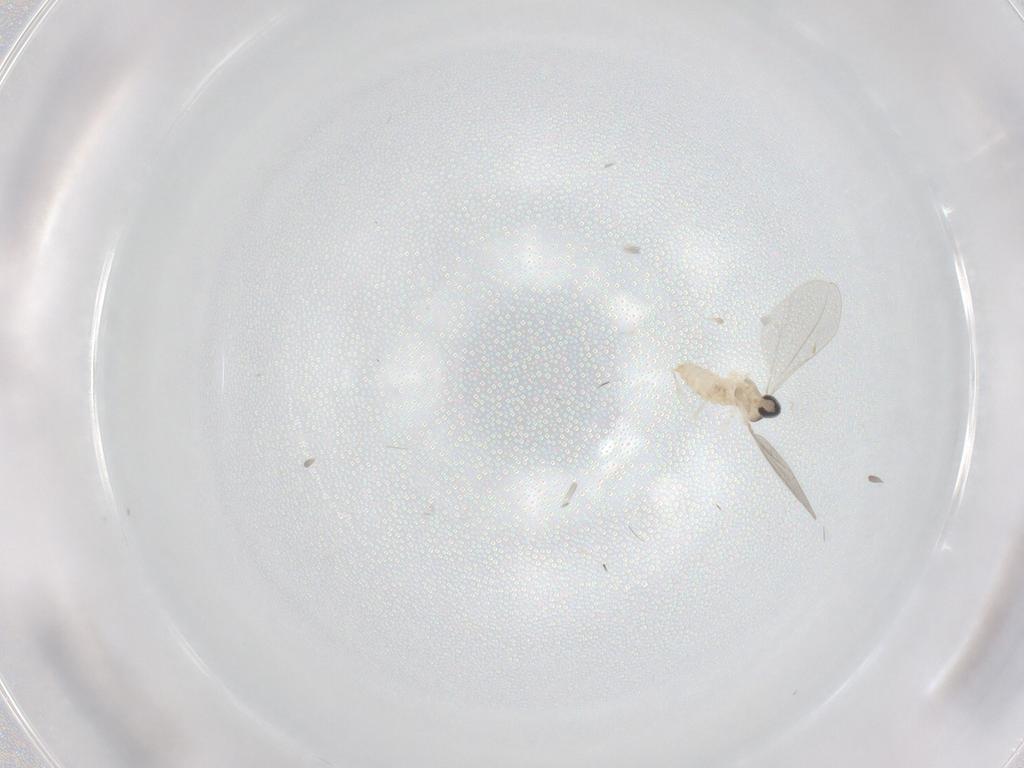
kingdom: Animalia
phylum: Arthropoda
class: Insecta
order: Diptera
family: Cecidomyiidae
